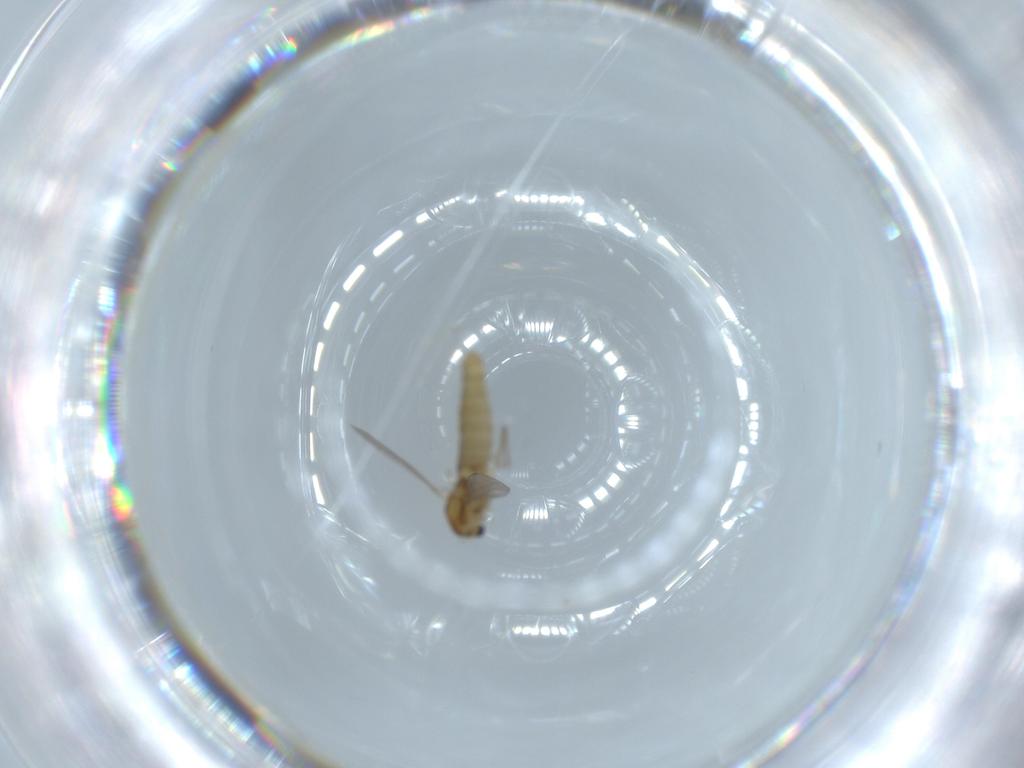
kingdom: Animalia
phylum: Arthropoda
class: Insecta
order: Diptera
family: Chironomidae
